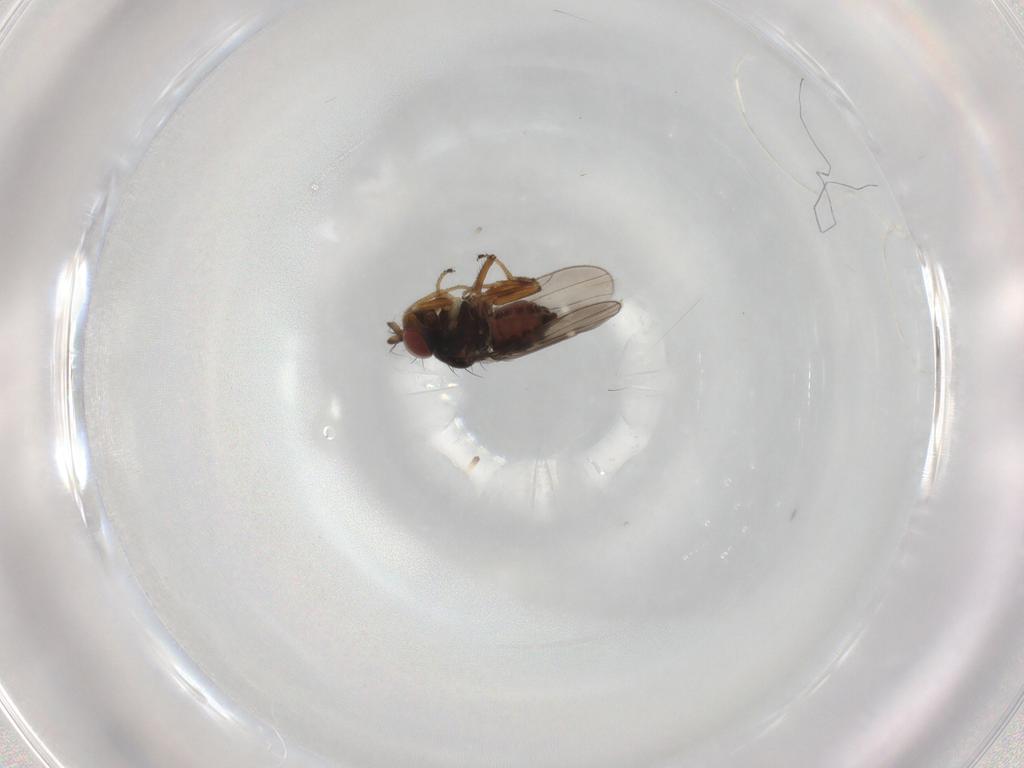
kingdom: Animalia
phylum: Arthropoda
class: Insecta
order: Diptera
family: Ephydridae
